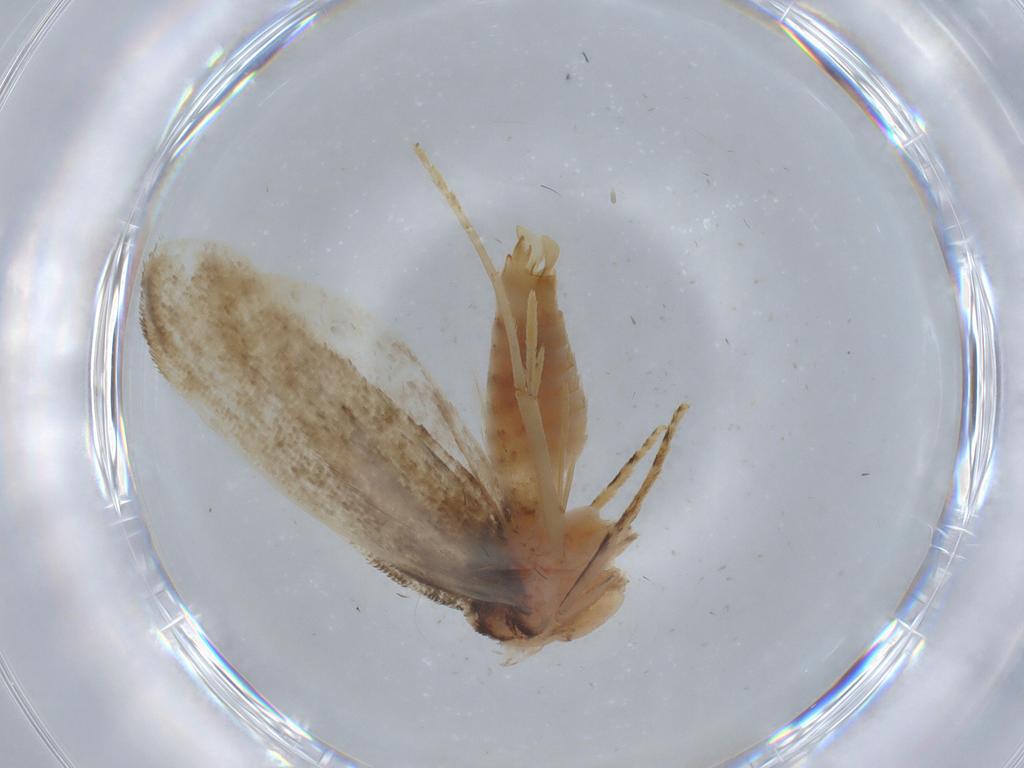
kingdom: Animalia
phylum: Arthropoda
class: Insecta
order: Lepidoptera
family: Tineidae
